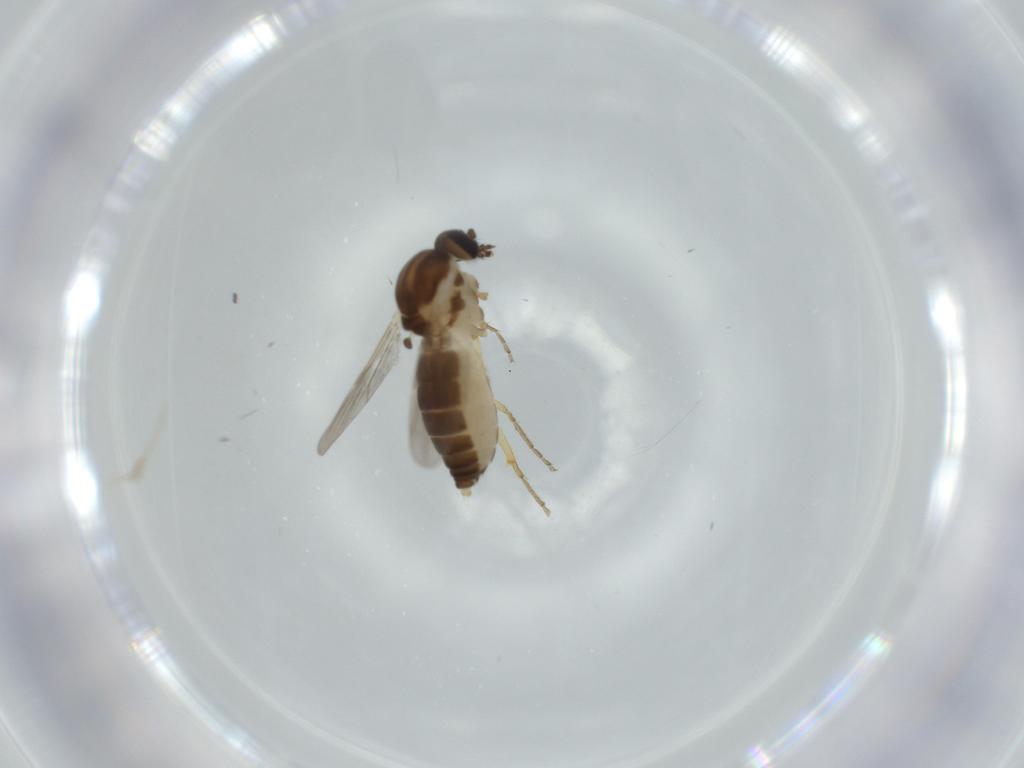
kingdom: Animalia
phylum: Arthropoda
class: Insecta
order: Diptera
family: Ceratopogonidae
